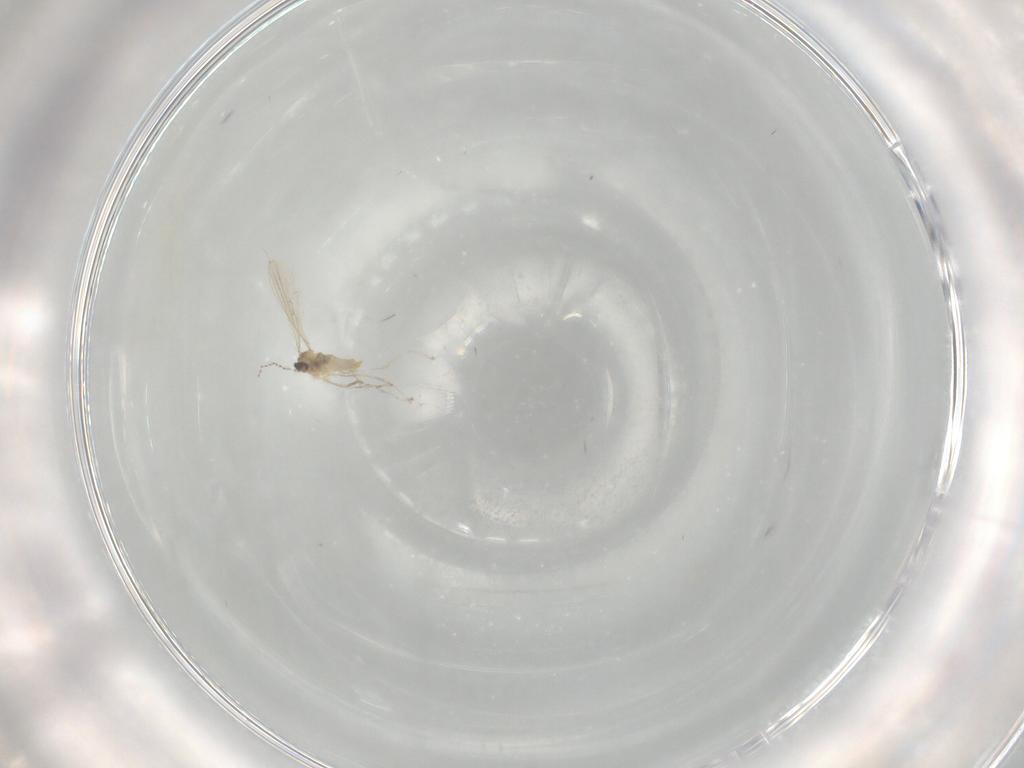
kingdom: Animalia
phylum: Arthropoda
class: Insecta
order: Diptera
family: Cecidomyiidae
